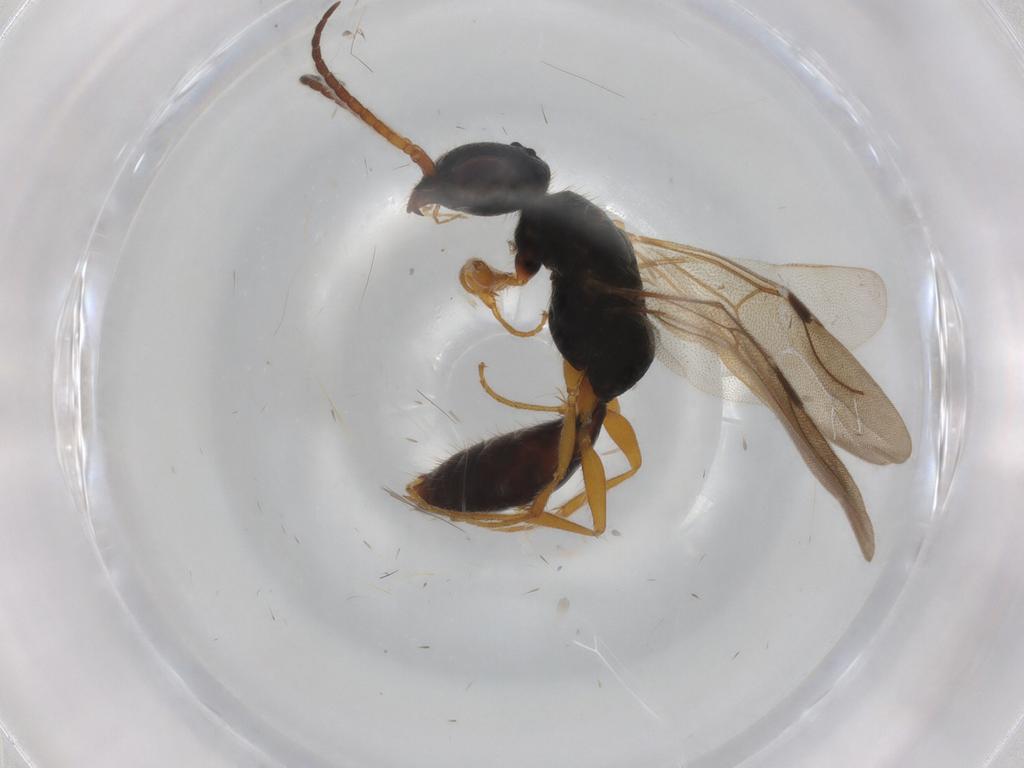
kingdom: Animalia
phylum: Arthropoda
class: Insecta
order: Hymenoptera
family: Bethylidae
